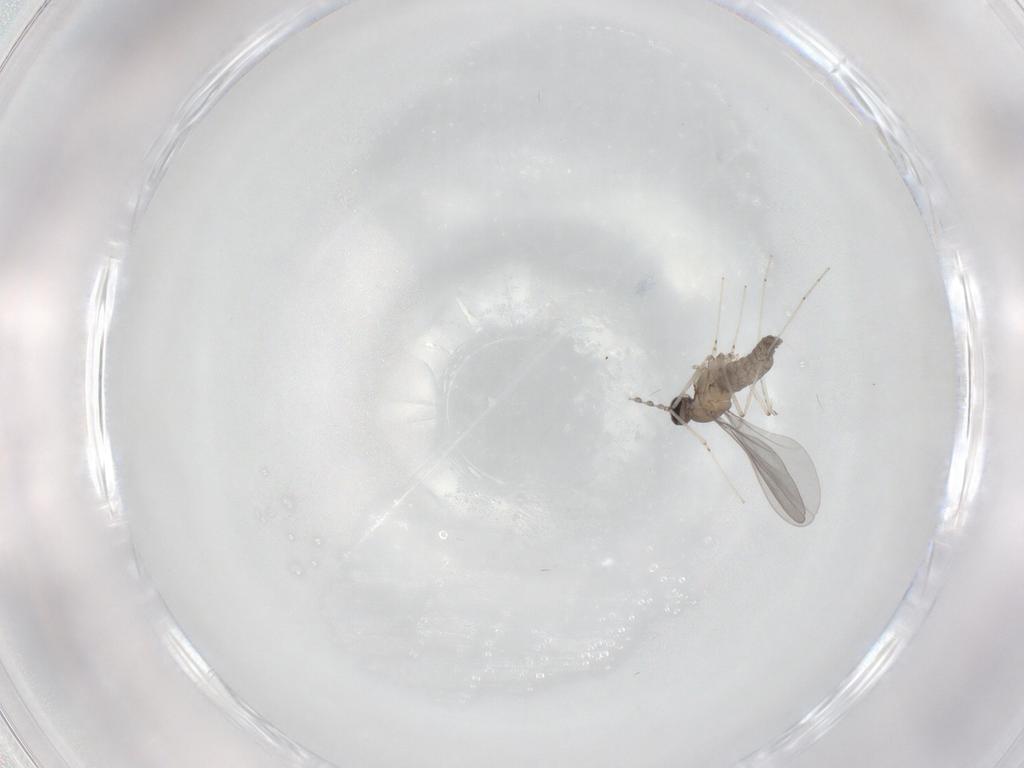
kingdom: Animalia
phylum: Arthropoda
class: Insecta
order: Diptera
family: Cecidomyiidae
